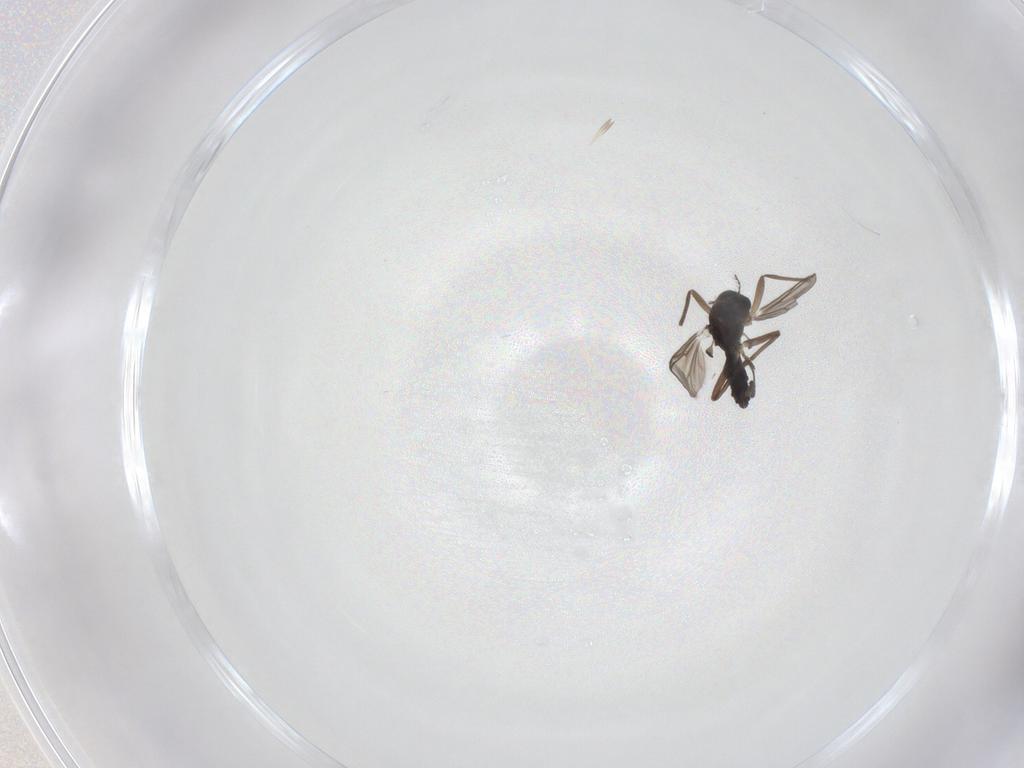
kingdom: Animalia
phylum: Arthropoda
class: Insecta
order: Diptera
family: Chironomidae
